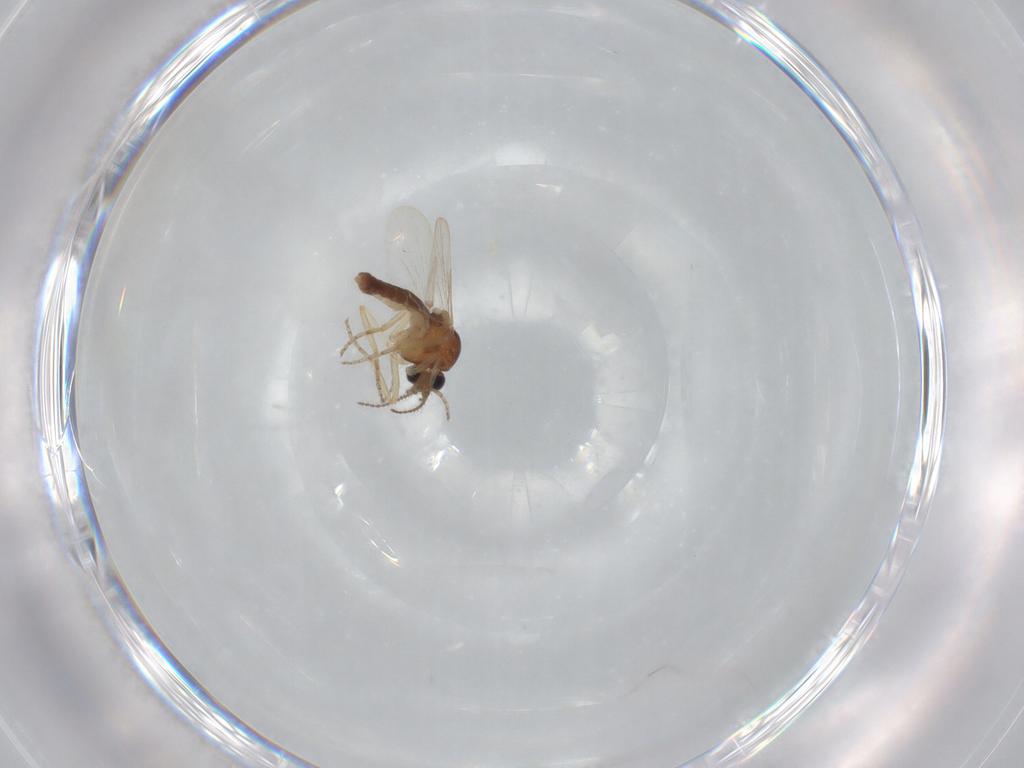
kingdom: Animalia
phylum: Arthropoda
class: Insecta
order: Diptera
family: Ceratopogonidae
